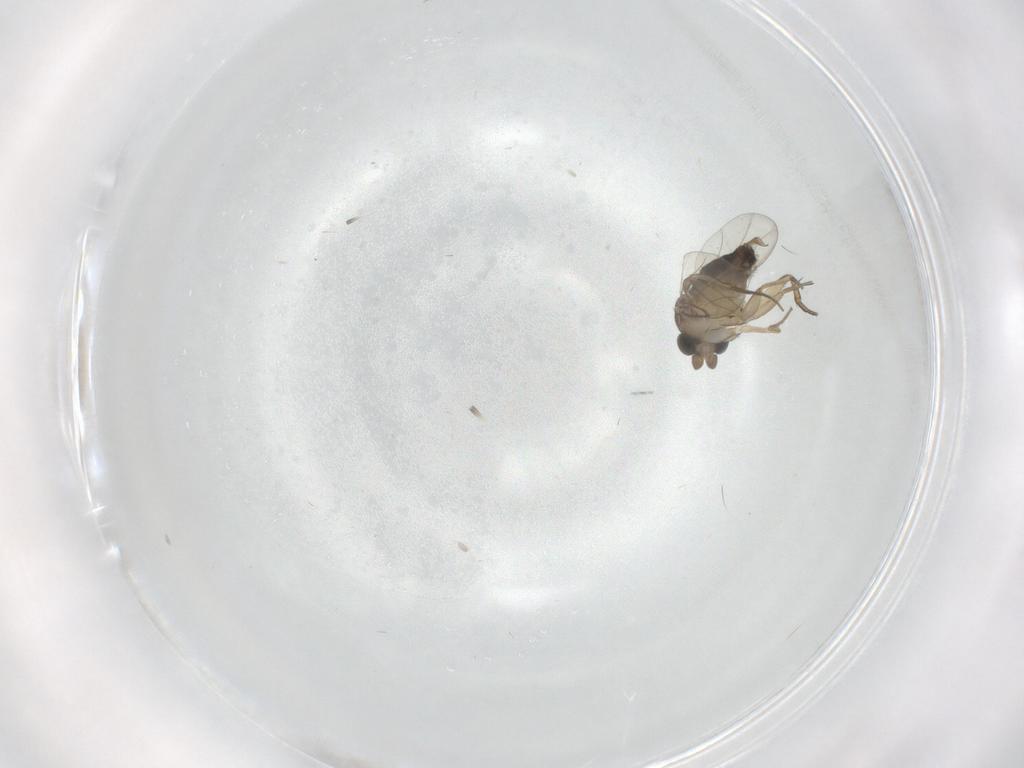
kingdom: Animalia
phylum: Arthropoda
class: Insecta
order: Diptera
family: Phoridae
